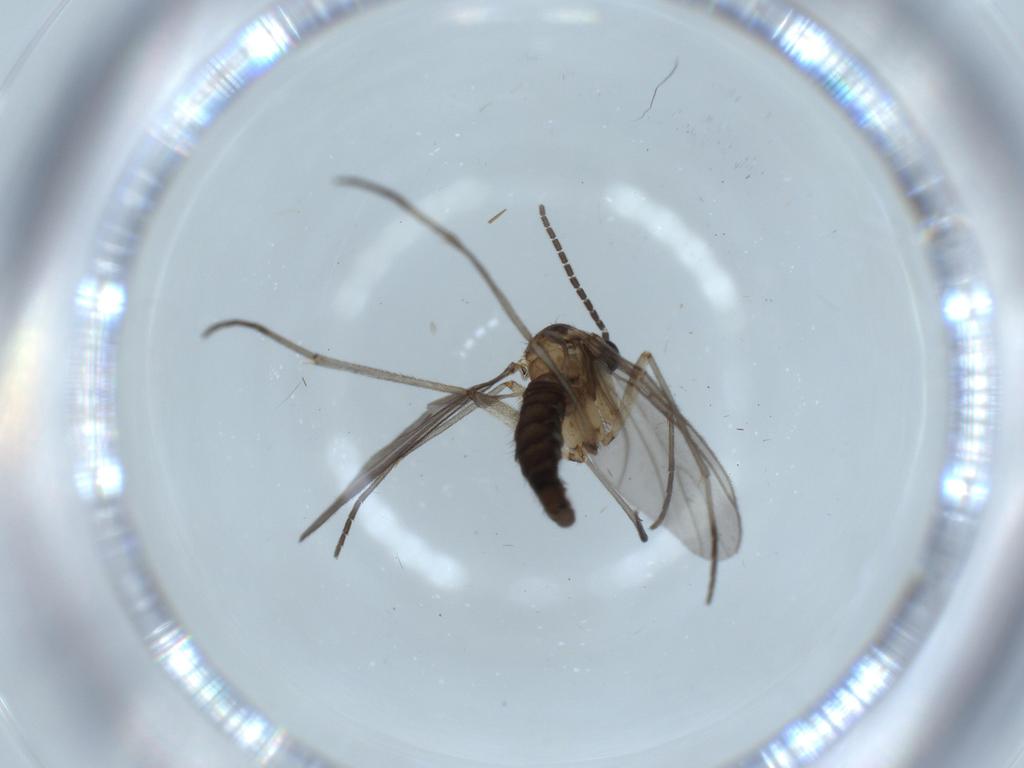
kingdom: Animalia
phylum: Arthropoda
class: Insecta
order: Diptera
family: Sciaridae
